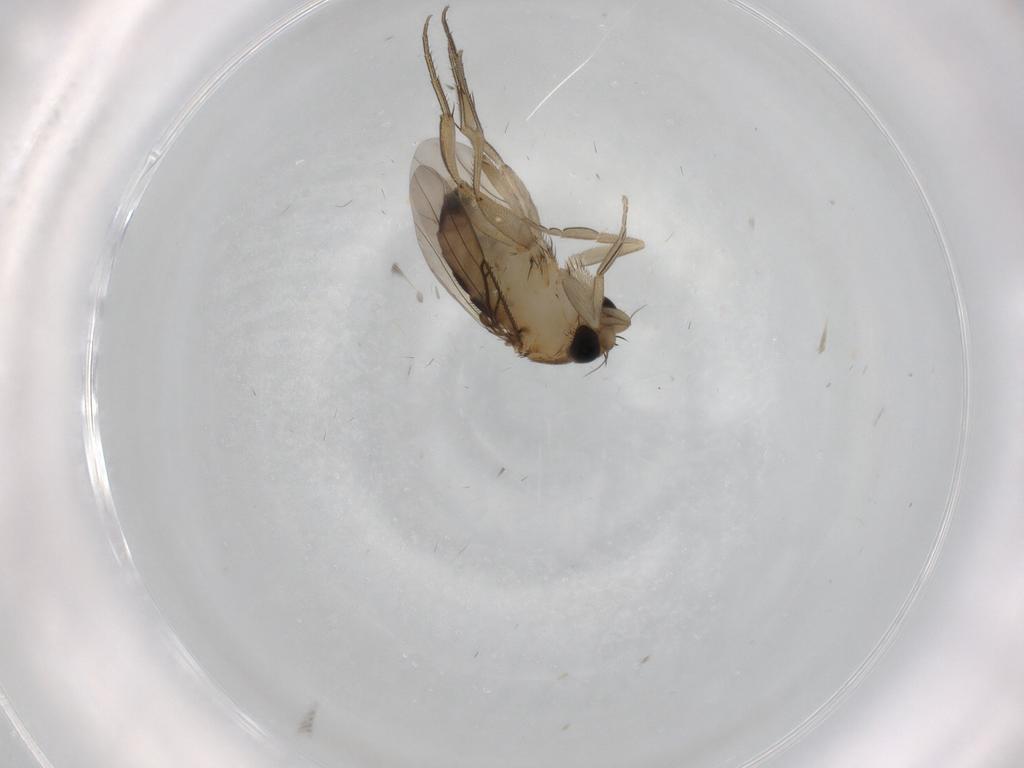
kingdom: Animalia
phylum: Arthropoda
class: Insecta
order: Diptera
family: Phoridae
